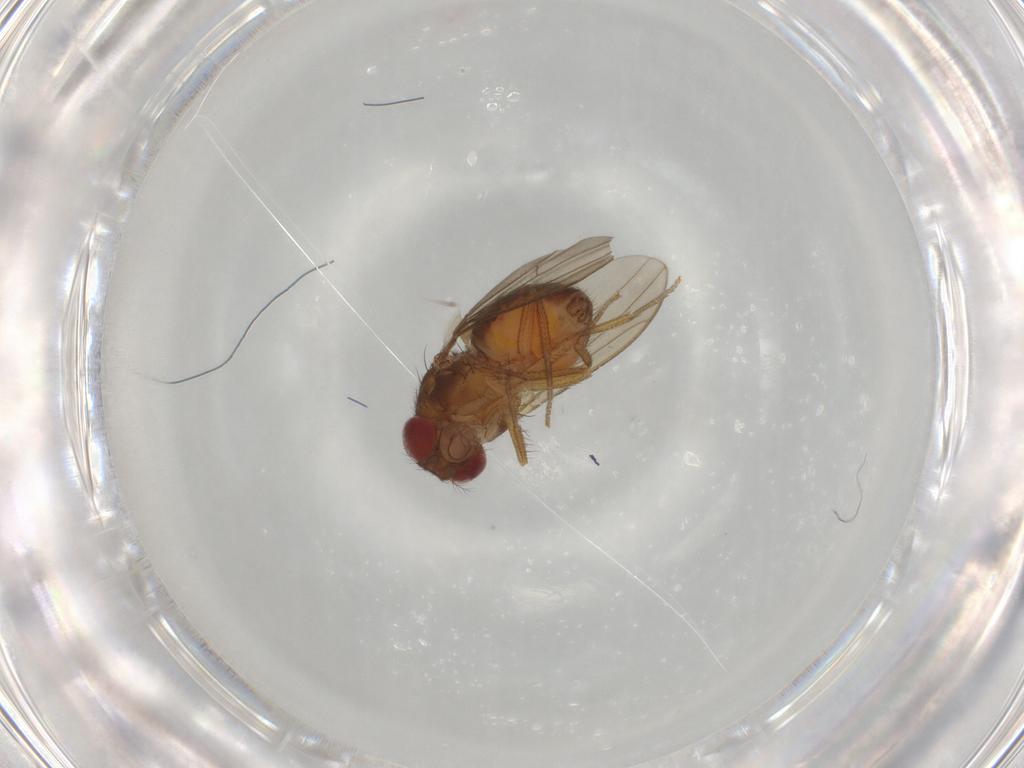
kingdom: Animalia
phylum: Arthropoda
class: Insecta
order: Diptera
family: Drosophilidae
